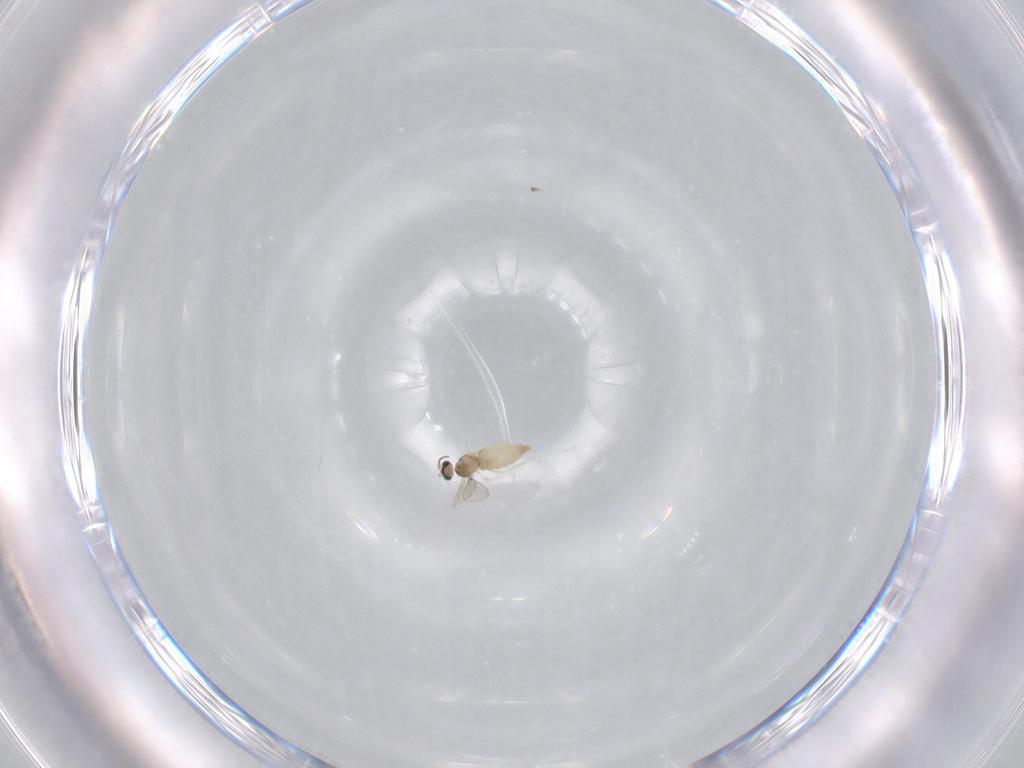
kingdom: Animalia
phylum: Arthropoda
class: Insecta
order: Diptera
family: Cecidomyiidae
